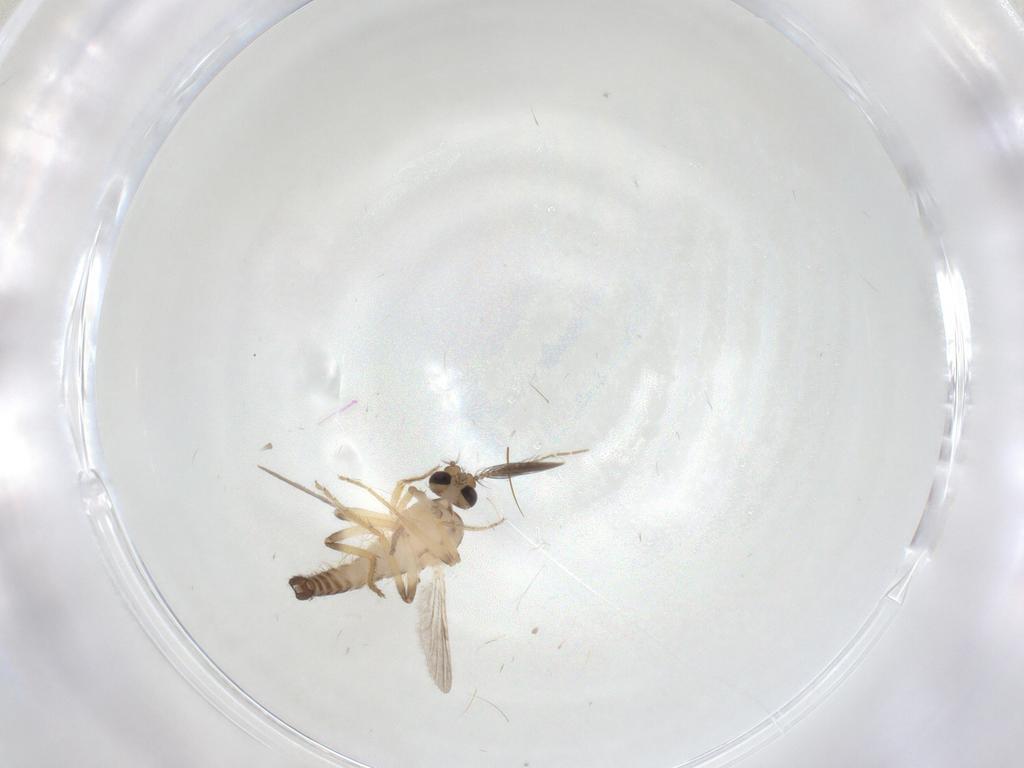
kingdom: Animalia
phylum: Arthropoda
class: Insecta
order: Diptera
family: Ceratopogonidae
